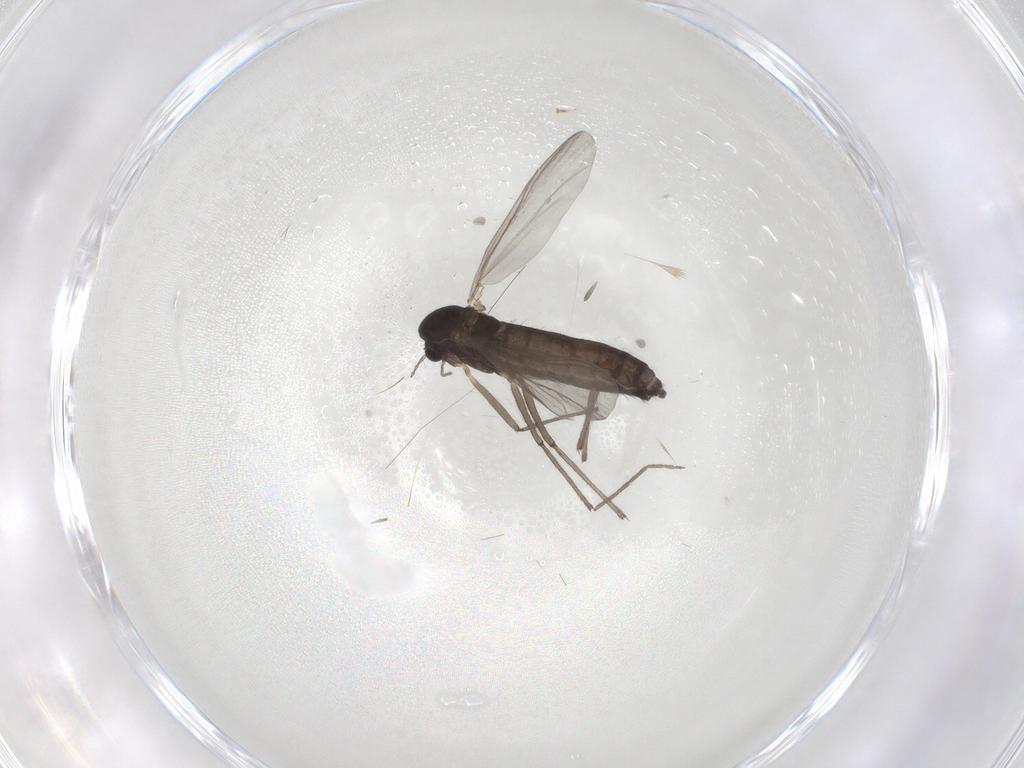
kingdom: Animalia
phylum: Arthropoda
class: Insecta
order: Diptera
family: Chironomidae
